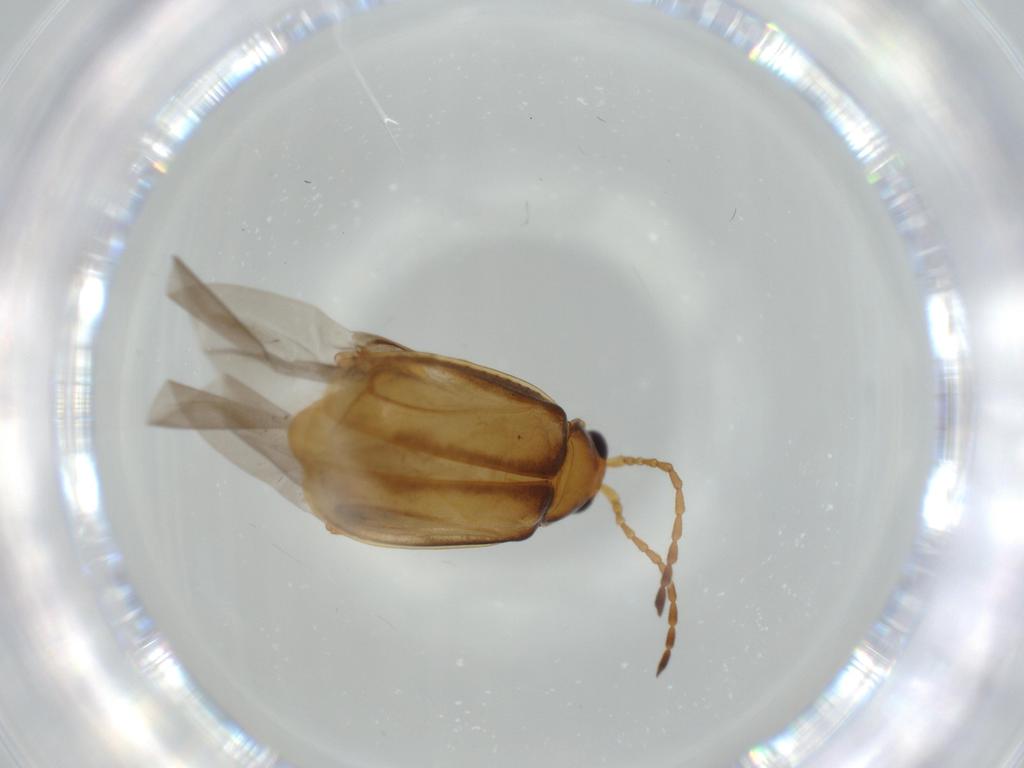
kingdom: Animalia
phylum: Arthropoda
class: Insecta
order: Coleoptera
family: Chrysomelidae
